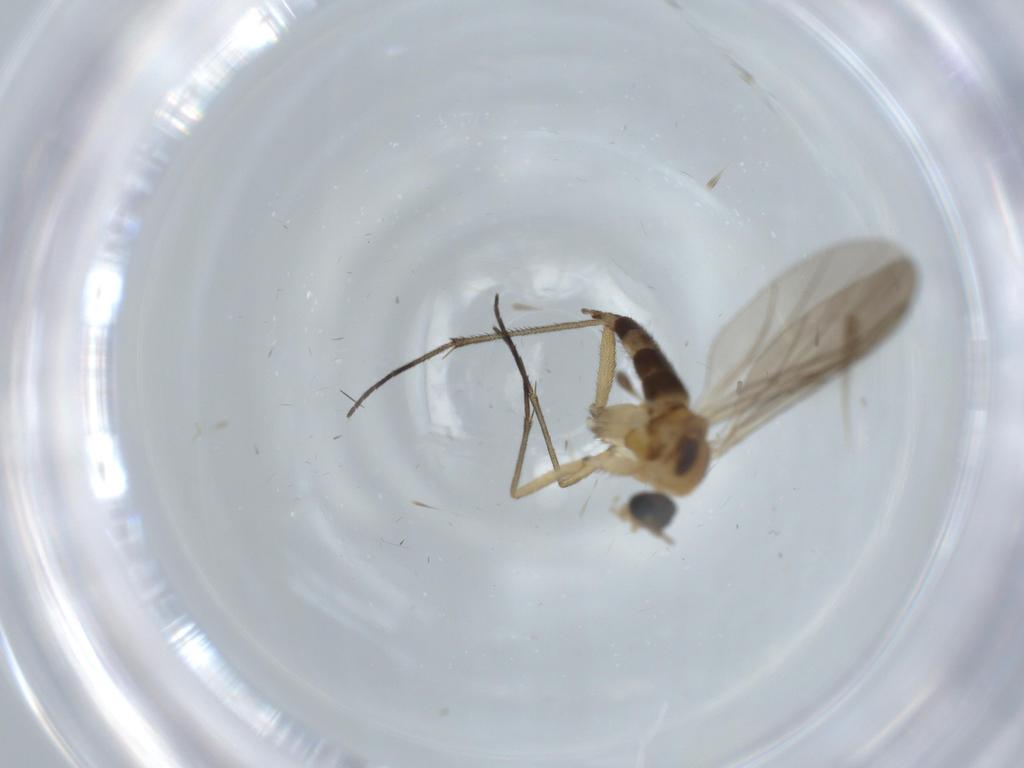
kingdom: Animalia
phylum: Arthropoda
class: Insecta
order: Diptera
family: Sciaridae
